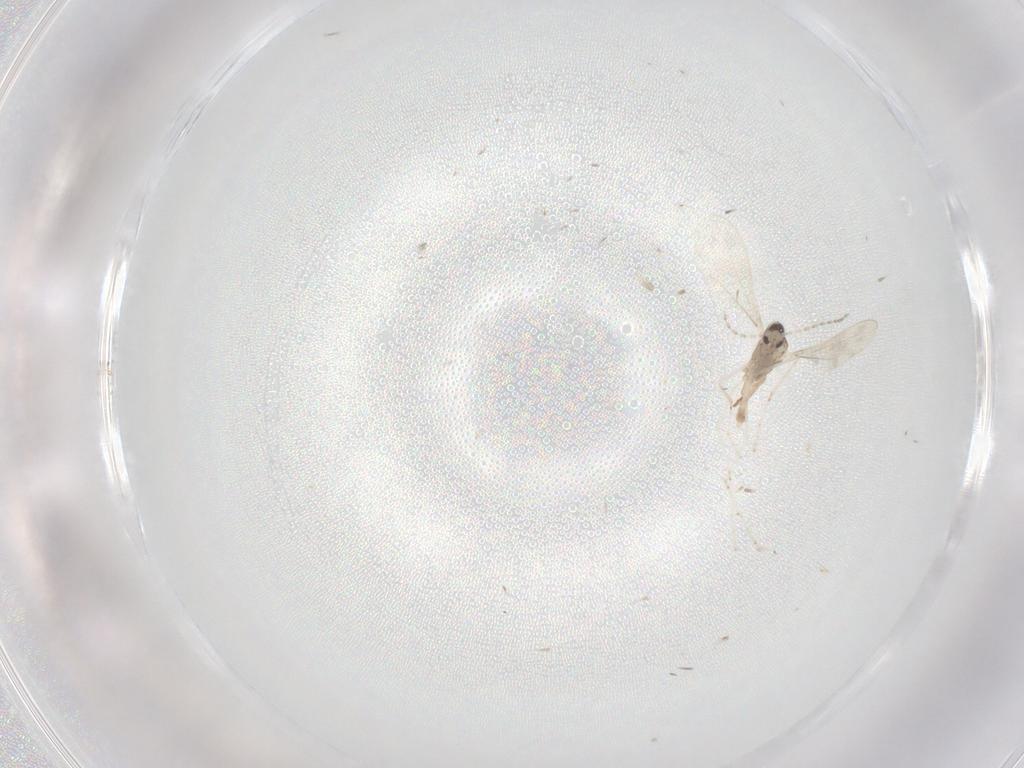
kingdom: Animalia
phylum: Arthropoda
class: Insecta
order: Diptera
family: Cecidomyiidae
